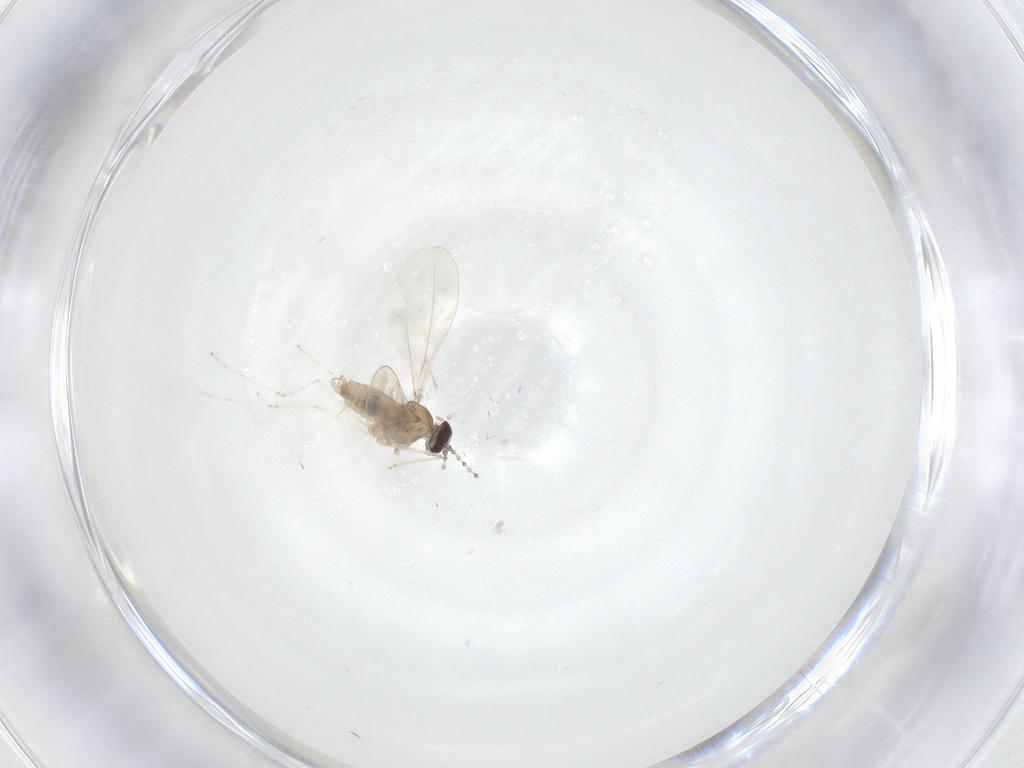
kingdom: Animalia
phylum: Arthropoda
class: Insecta
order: Diptera
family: Cecidomyiidae
